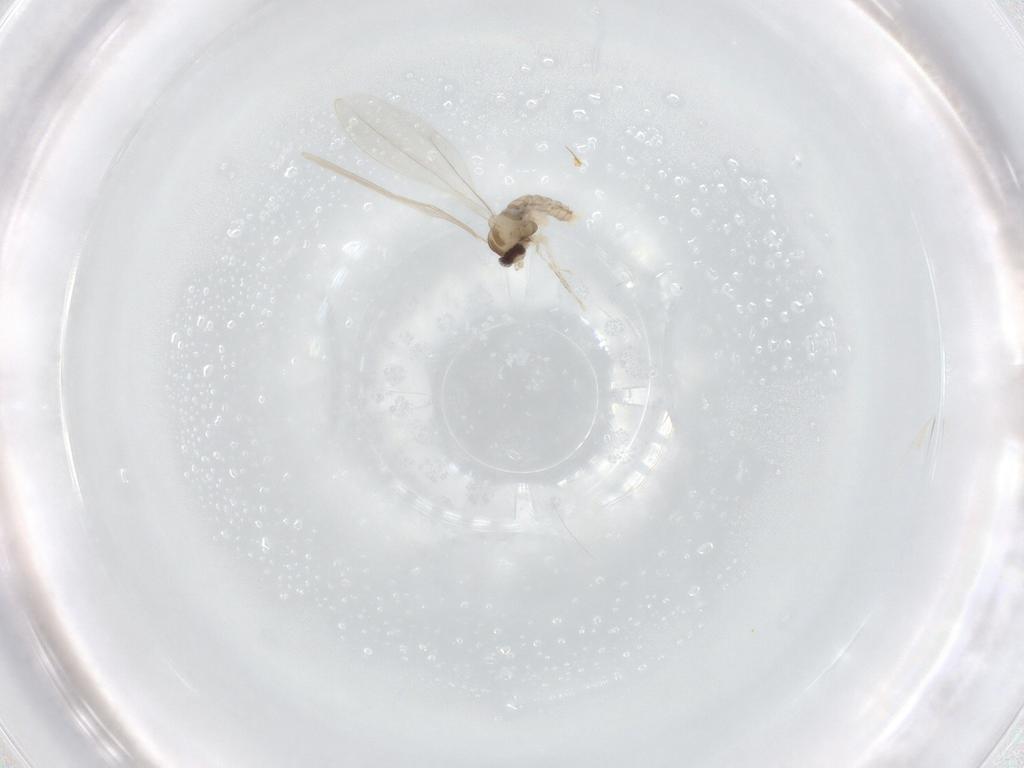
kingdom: Animalia
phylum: Arthropoda
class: Insecta
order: Diptera
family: Cecidomyiidae
